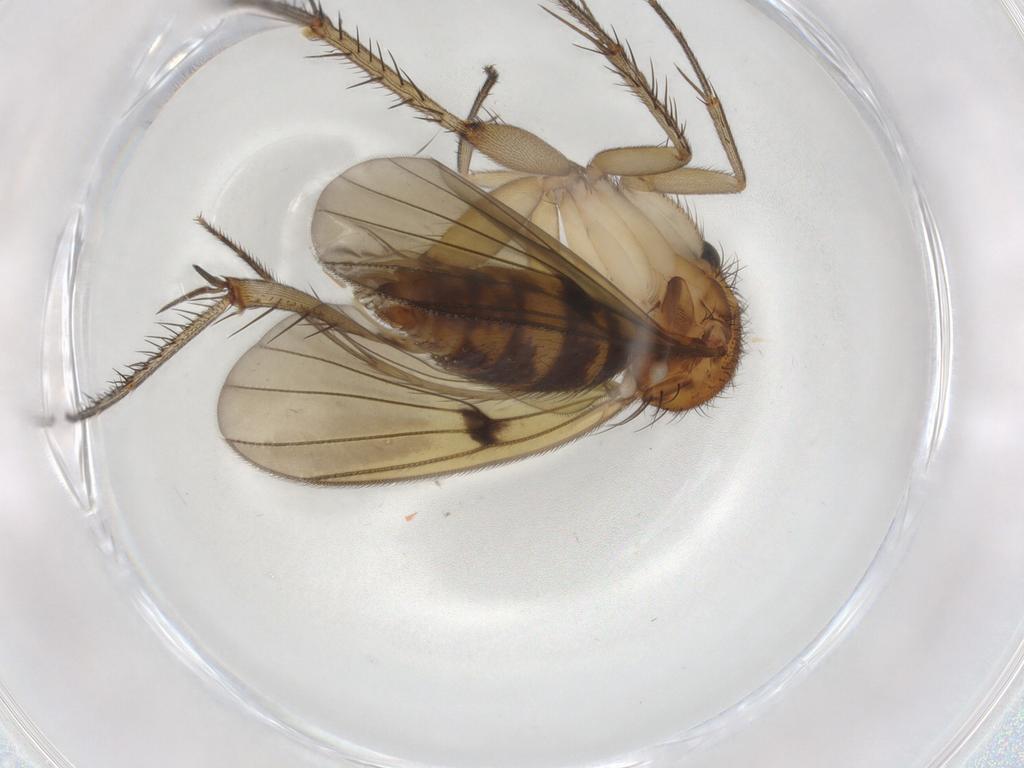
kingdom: Animalia
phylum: Arthropoda
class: Insecta
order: Diptera
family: Mycetophilidae
